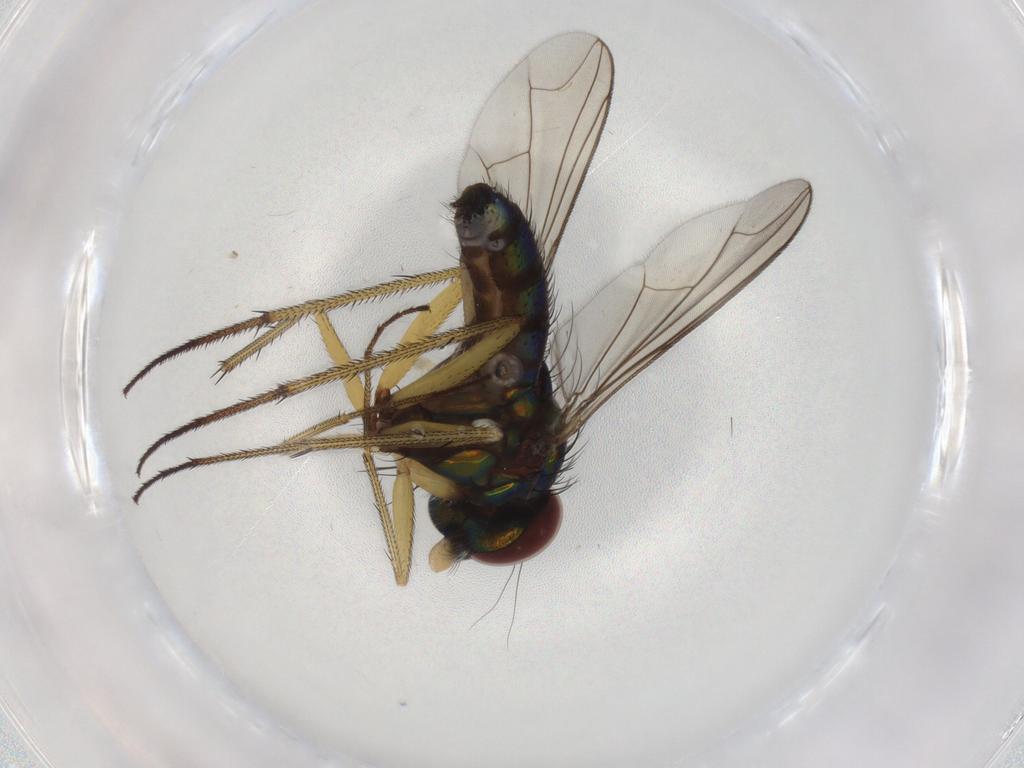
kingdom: Animalia
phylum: Arthropoda
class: Insecta
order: Diptera
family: Dolichopodidae
